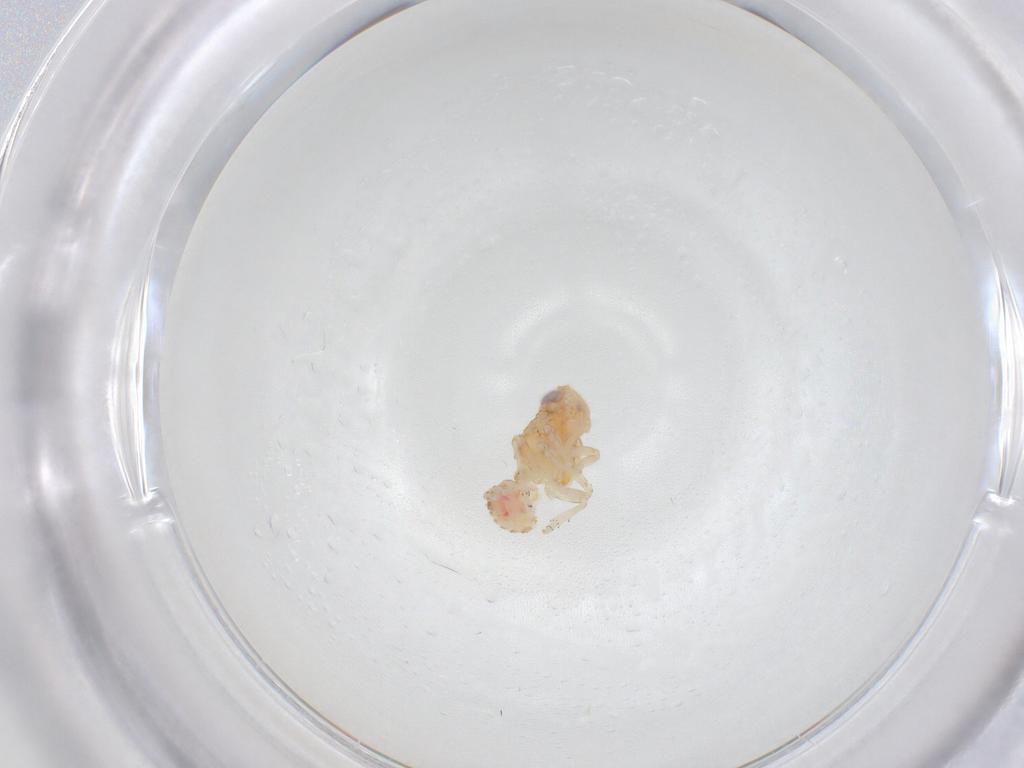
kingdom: Animalia
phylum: Arthropoda
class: Insecta
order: Hemiptera
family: Issidae
